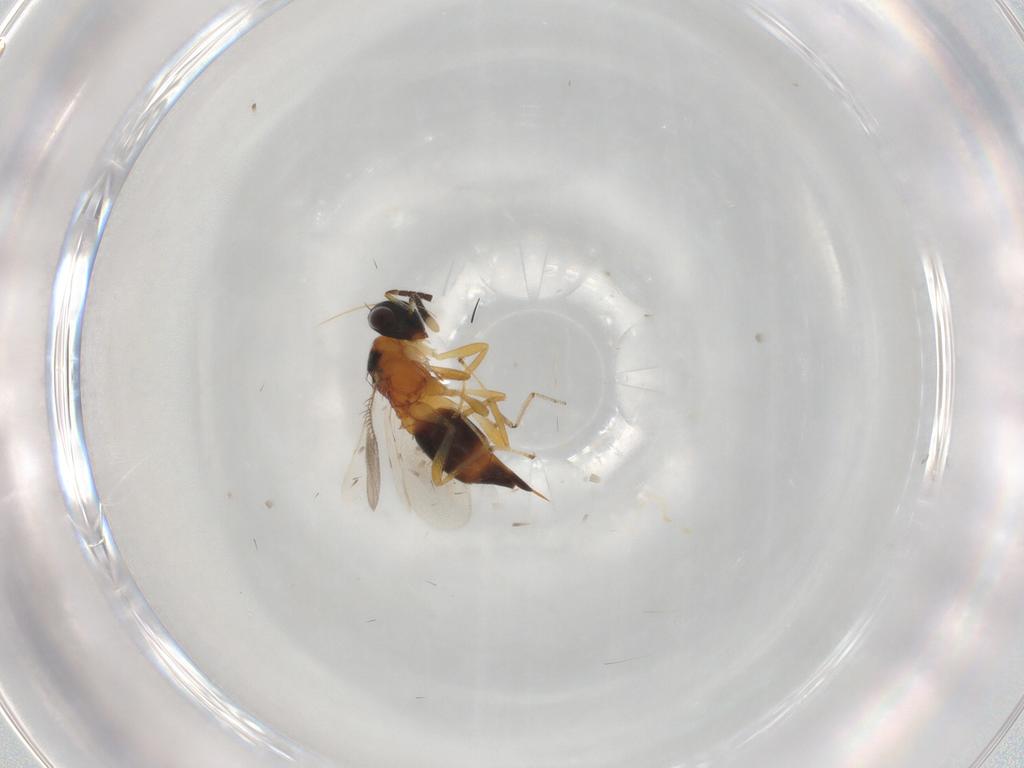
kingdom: Animalia
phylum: Arthropoda
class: Insecta
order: Hymenoptera
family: Diparidae
